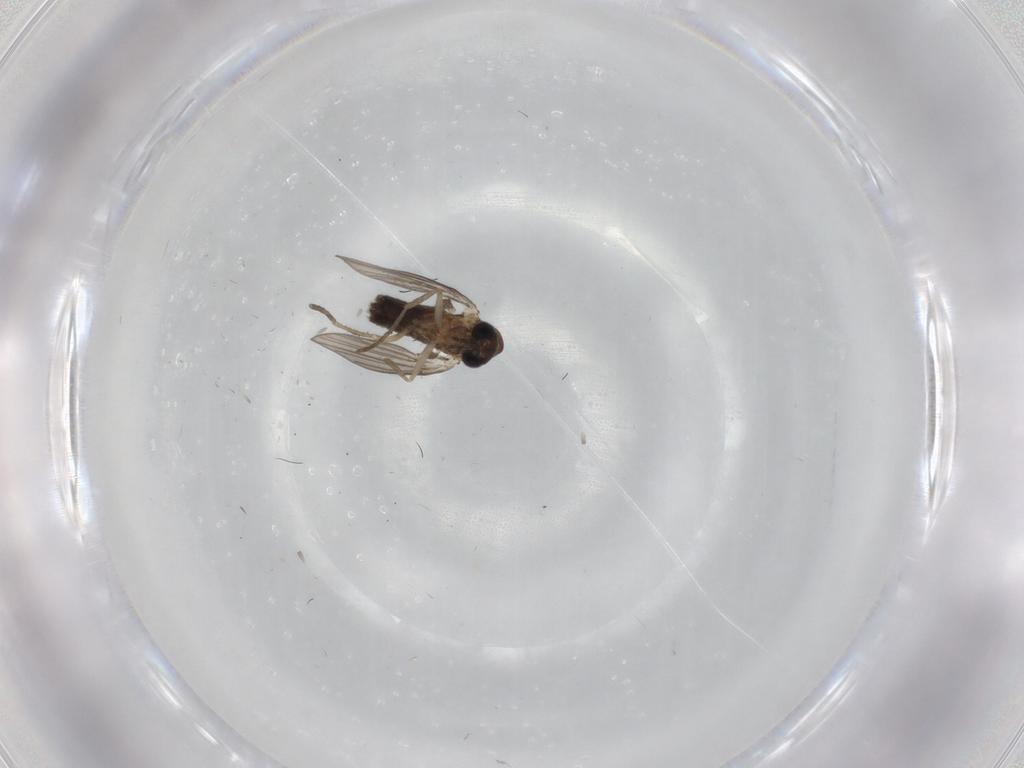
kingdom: Animalia
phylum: Arthropoda
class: Insecta
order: Diptera
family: Psychodidae
